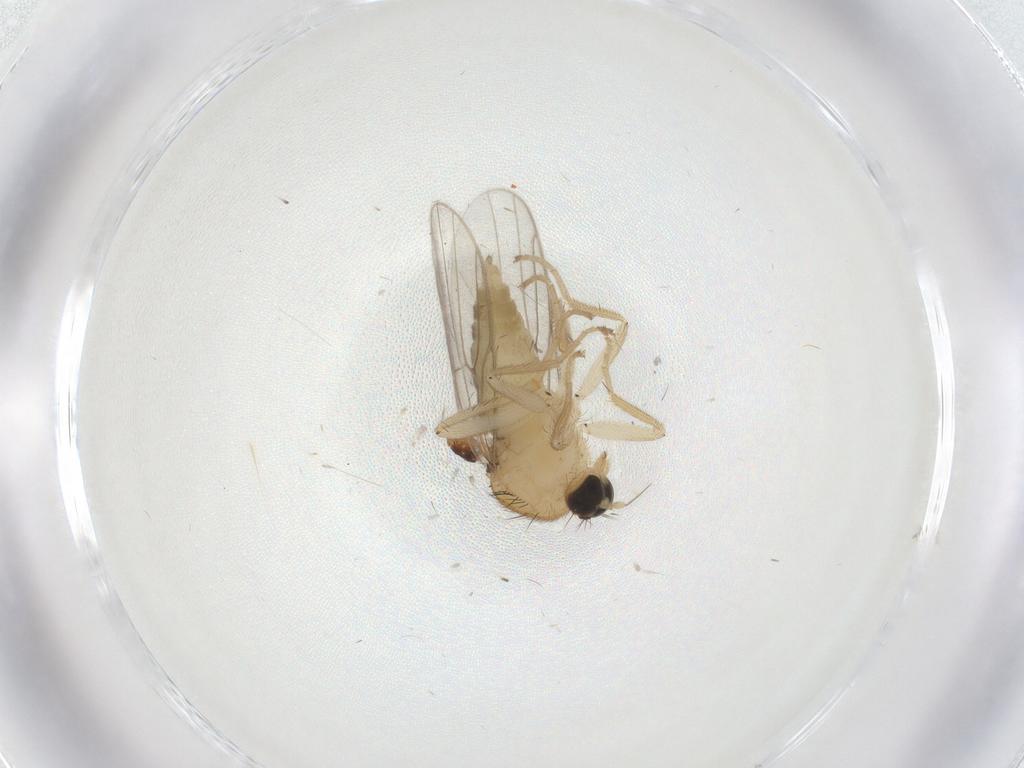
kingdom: Animalia
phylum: Arthropoda
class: Insecta
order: Diptera
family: Hybotidae
